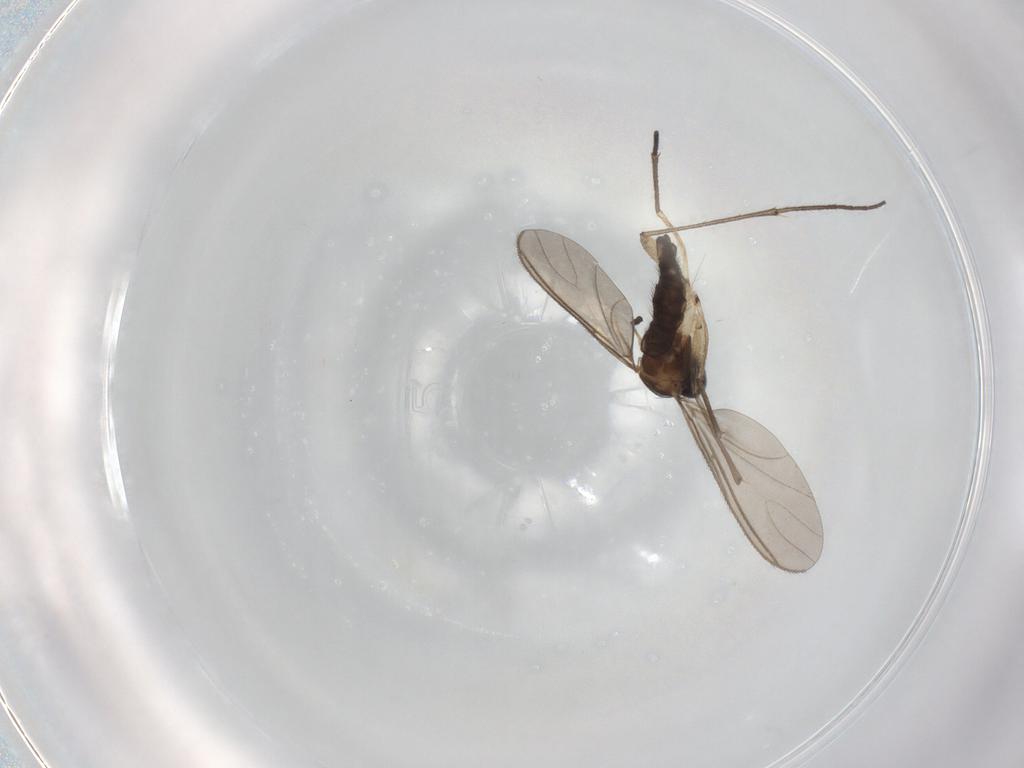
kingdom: Animalia
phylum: Arthropoda
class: Insecta
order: Diptera
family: Sciaridae
